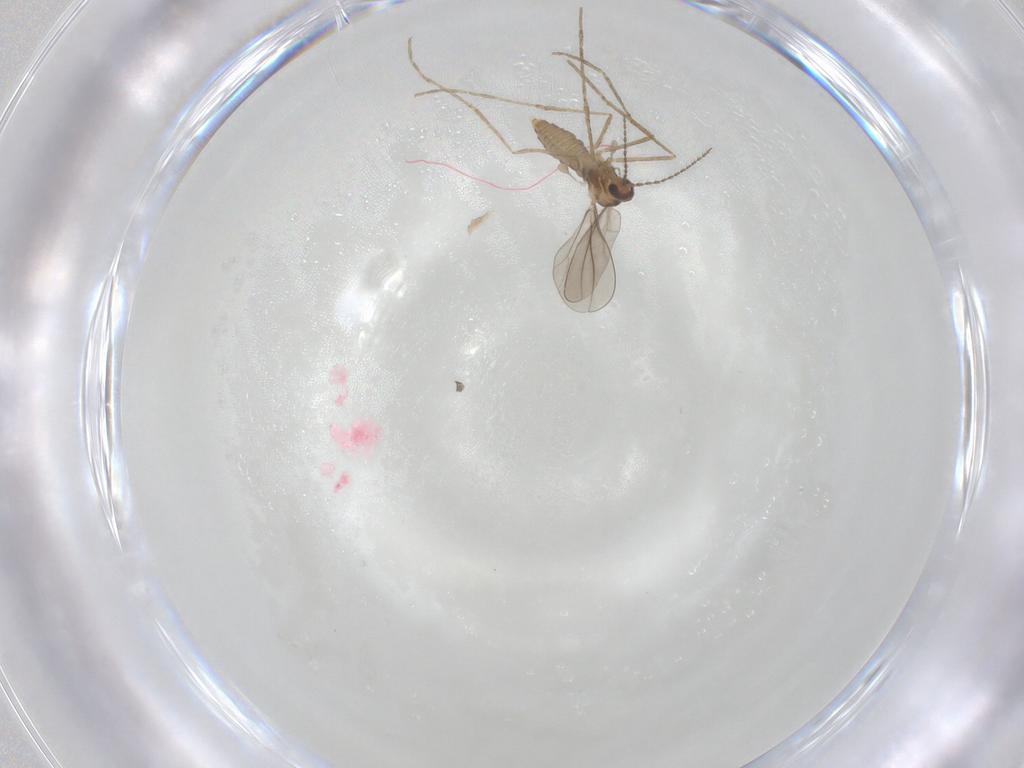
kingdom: Animalia
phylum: Arthropoda
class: Insecta
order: Diptera
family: Cecidomyiidae
